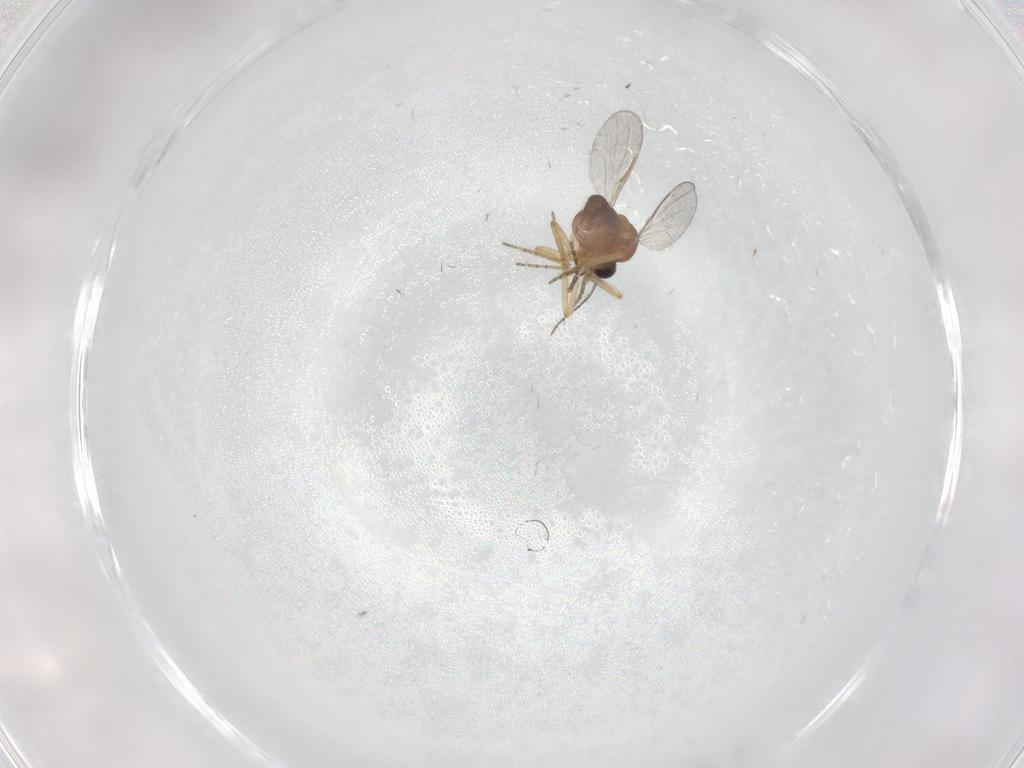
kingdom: Animalia
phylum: Arthropoda
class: Insecta
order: Diptera
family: Phoridae
